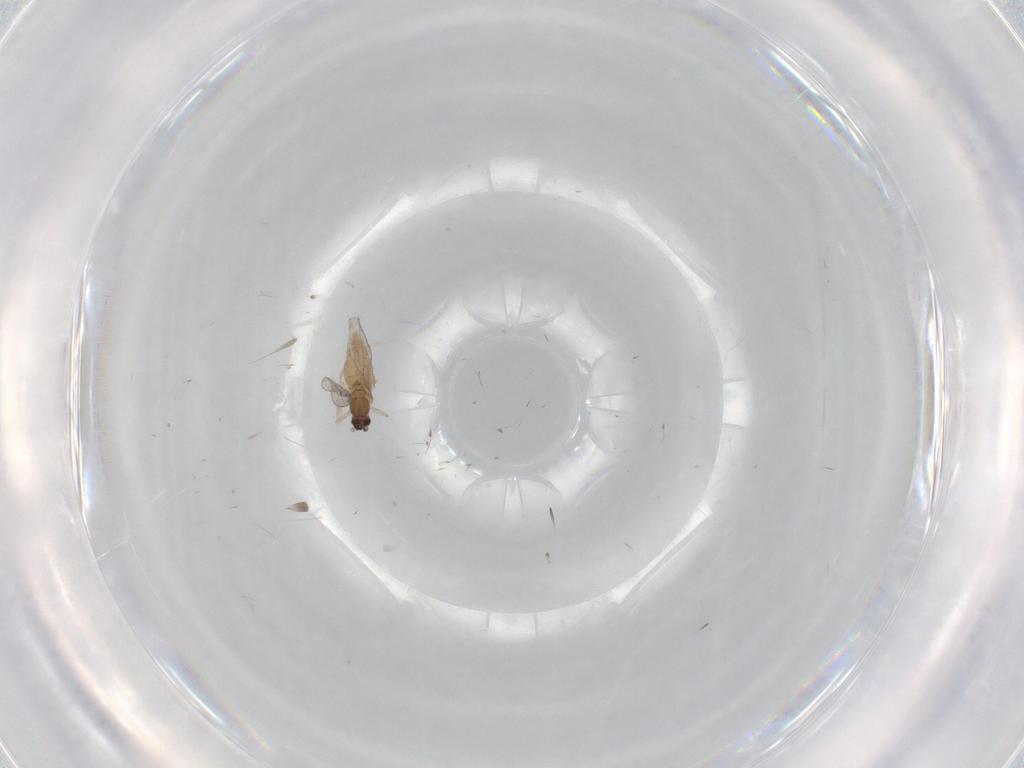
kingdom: Animalia
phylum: Arthropoda
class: Insecta
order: Diptera
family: Cecidomyiidae
